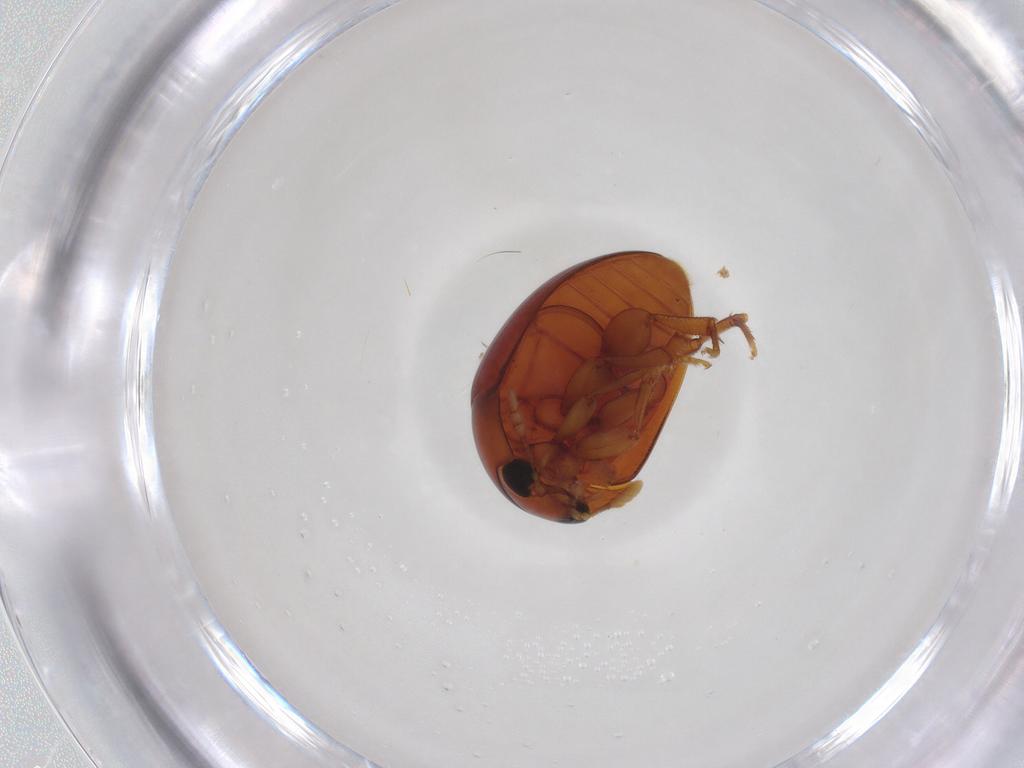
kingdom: Animalia
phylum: Arthropoda
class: Insecta
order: Coleoptera
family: Phalacridae
